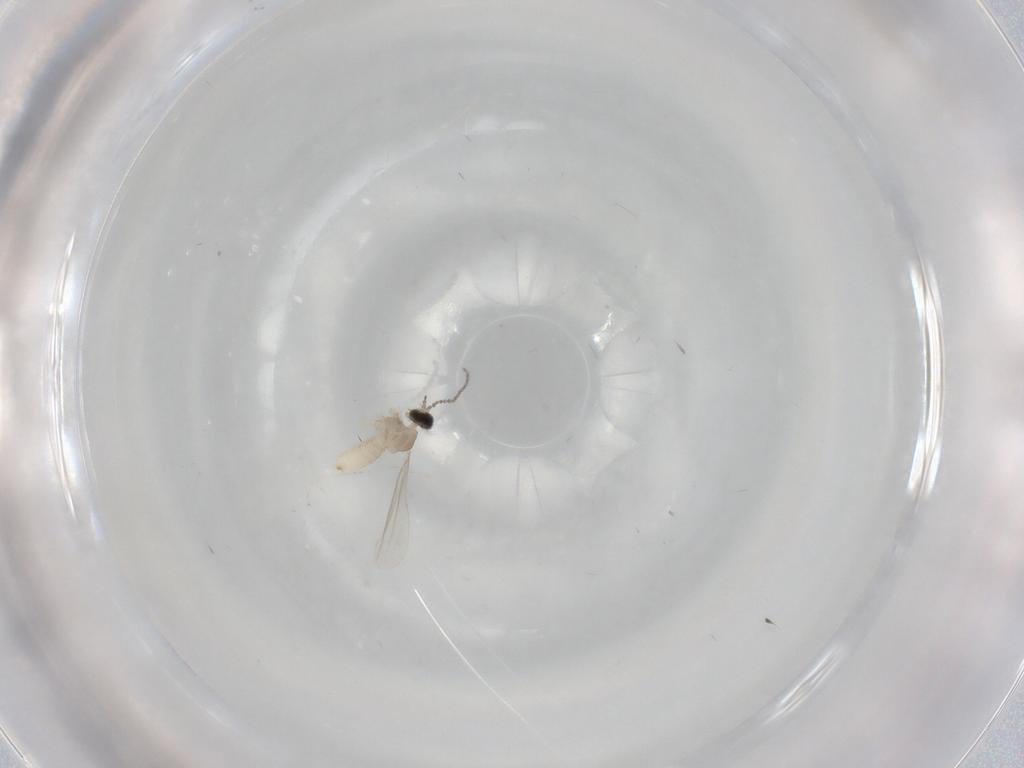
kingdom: Animalia
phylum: Arthropoda
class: Insecta
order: Diptera
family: Cecidomyiidae
